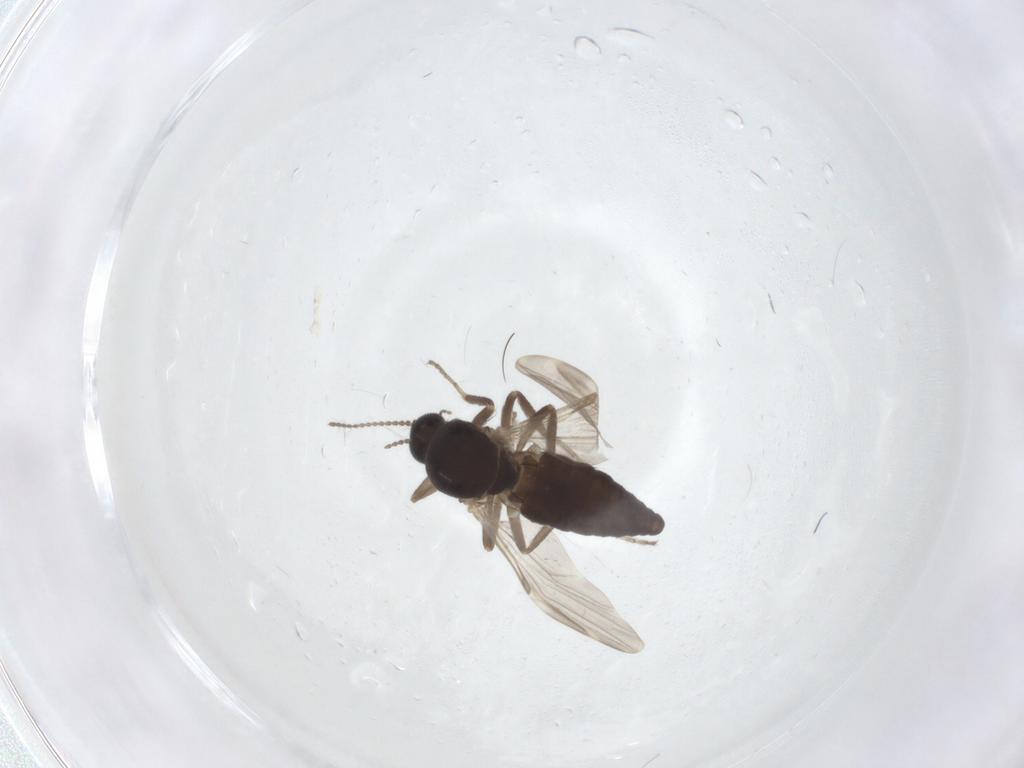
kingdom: Animalia
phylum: Arthropoda
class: Insecta
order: Diptera
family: Ceratopogonidae
